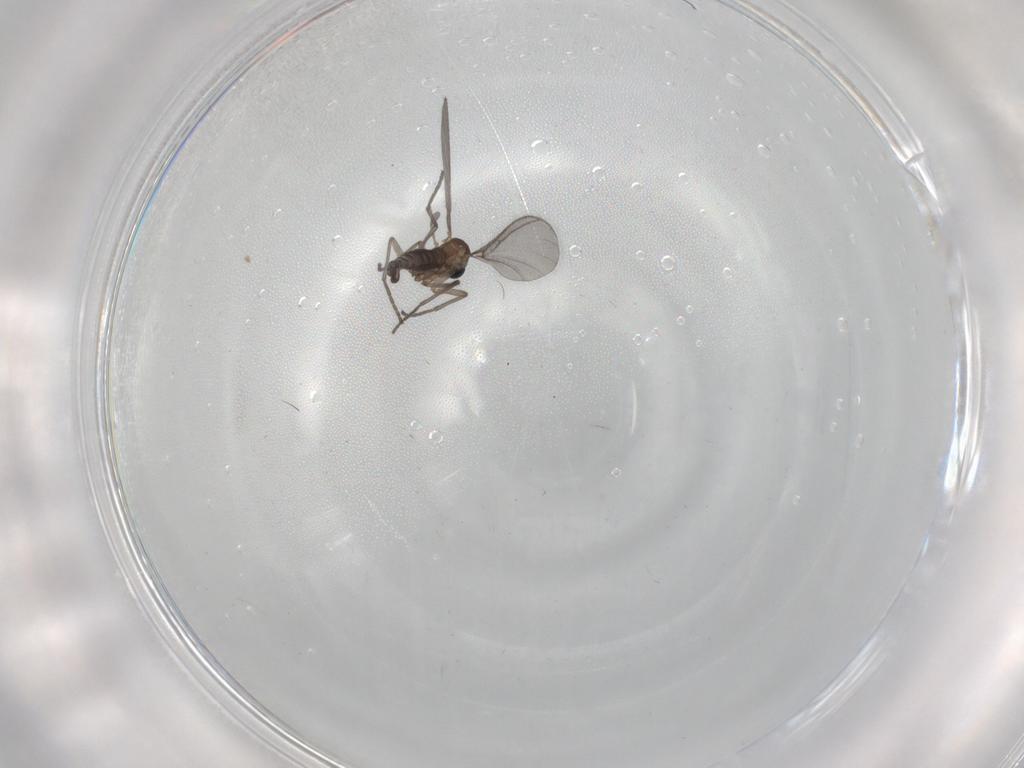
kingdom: Animalia
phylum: Arthropoda
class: Insecta
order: Diptera
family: Sciaridae
